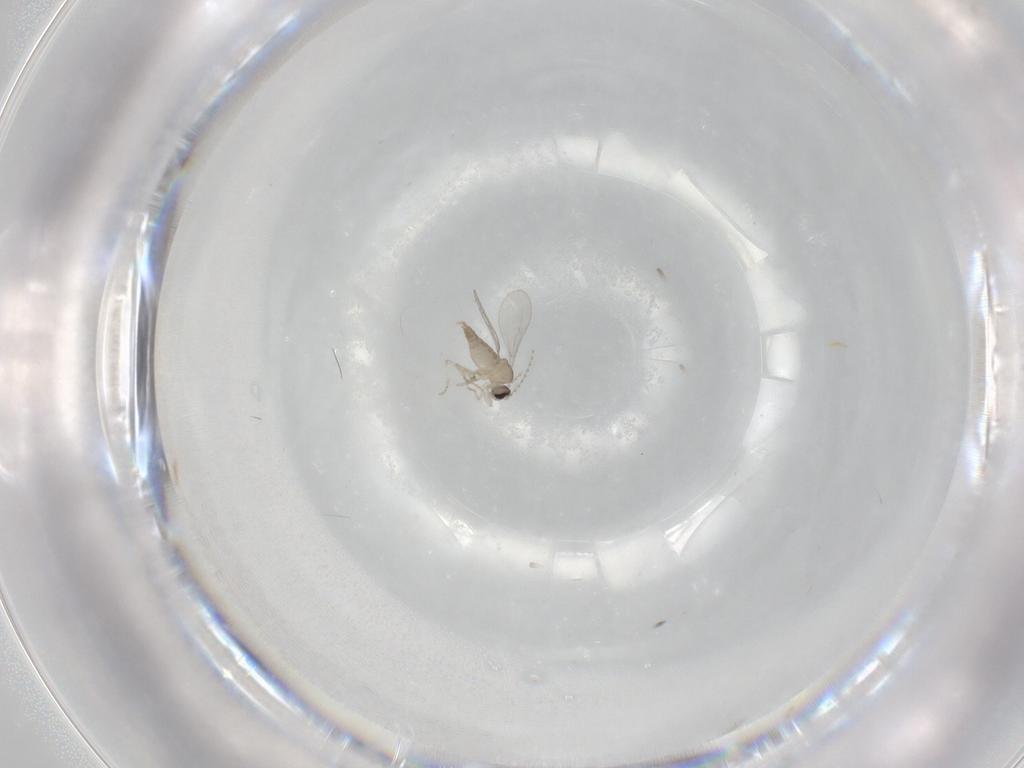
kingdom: Animalia
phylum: Arthropoda
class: Insecta
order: Diptera
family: Cecidomyiidae
